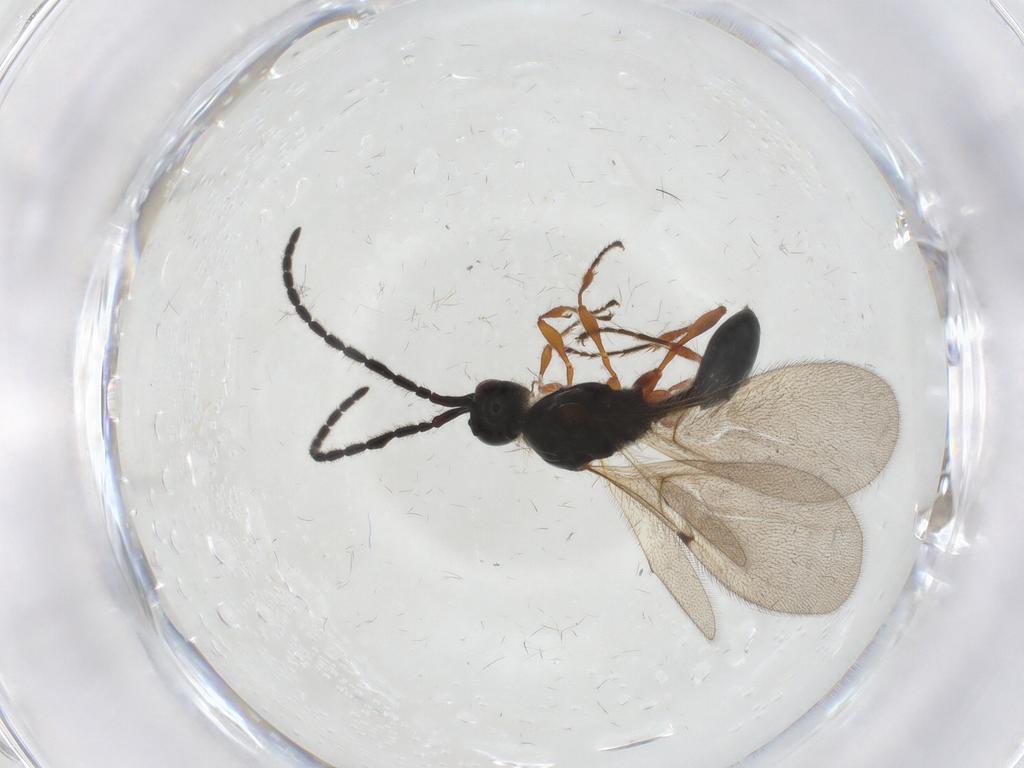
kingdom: Animalia
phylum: Arthropoda
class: Insecta
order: Hymenoptera
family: Diapriidae
